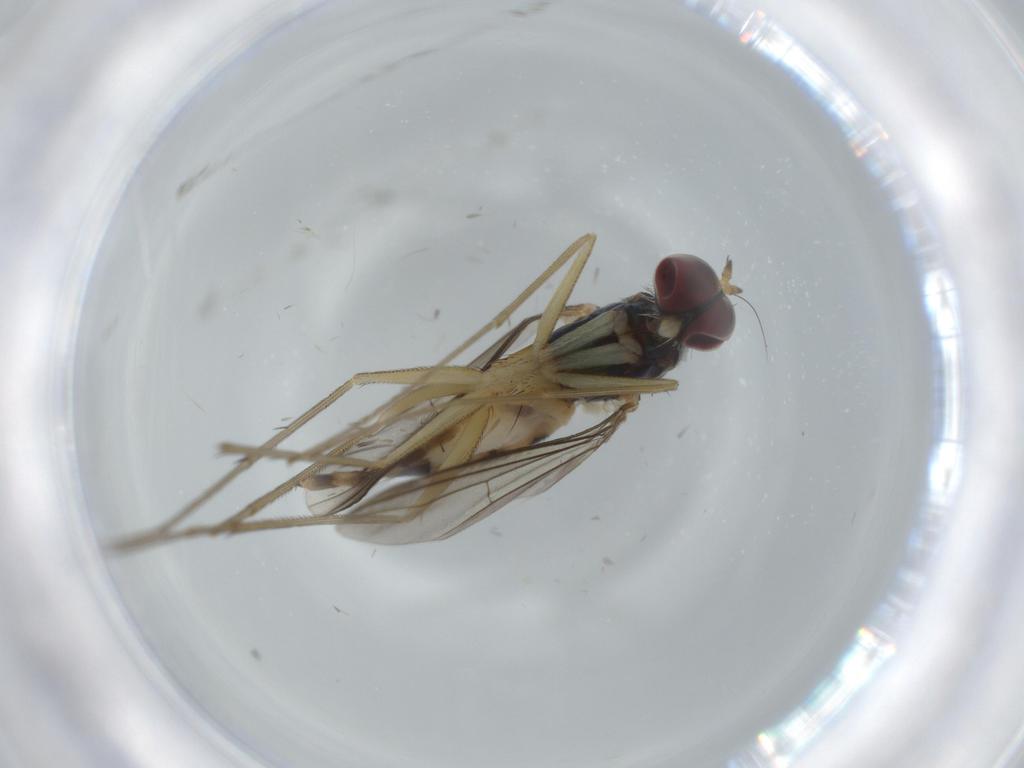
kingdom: Animalia
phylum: Arthropoda
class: Insecta
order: Diptera
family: Dolichopodidae
